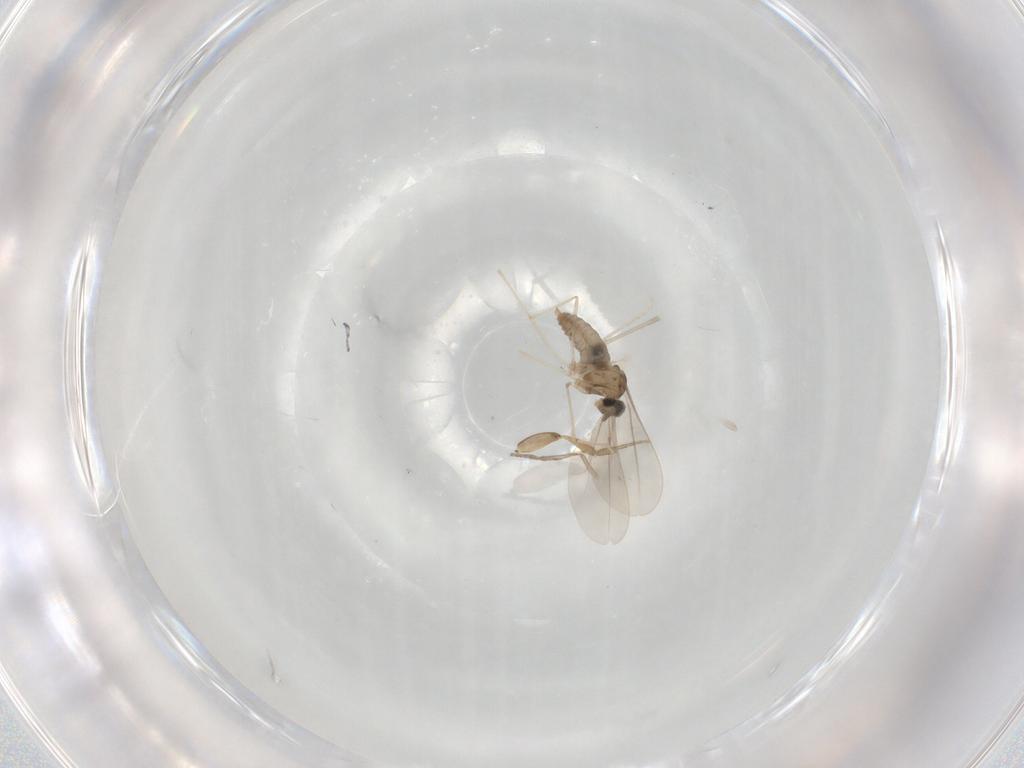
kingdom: Animalia
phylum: Arthropoda
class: Insecta
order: Diptera
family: Cecidomyiidae
